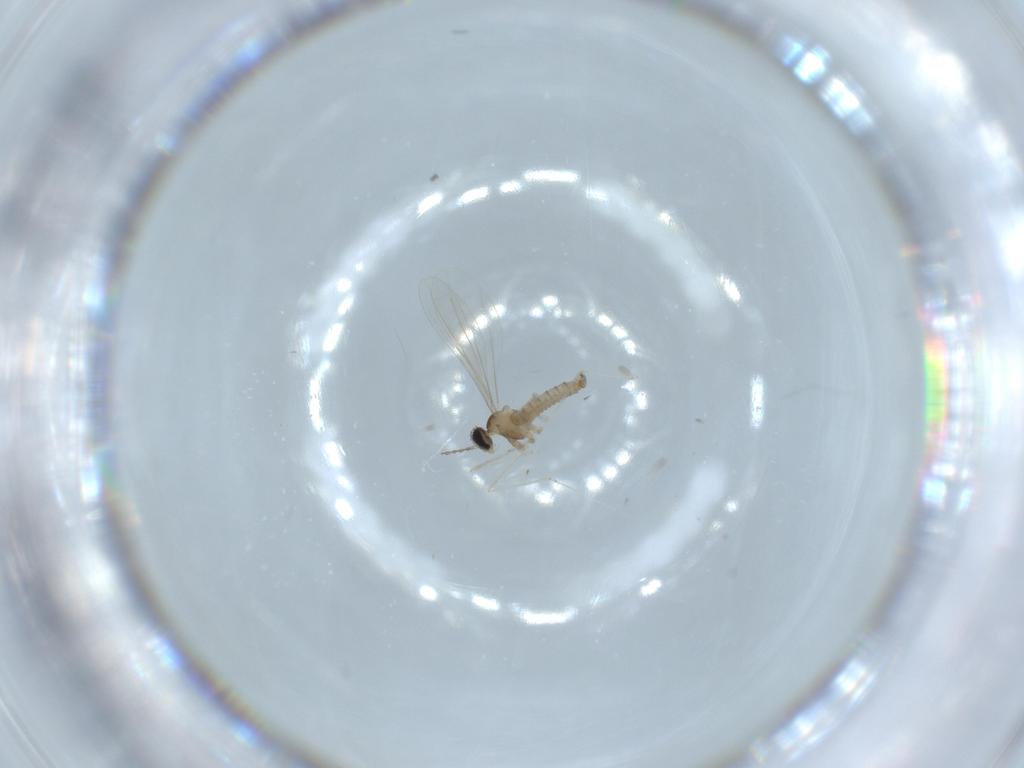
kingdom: Animalia
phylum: Arthropoda
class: Insecta
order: Diptera
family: Cecidomyiidae
